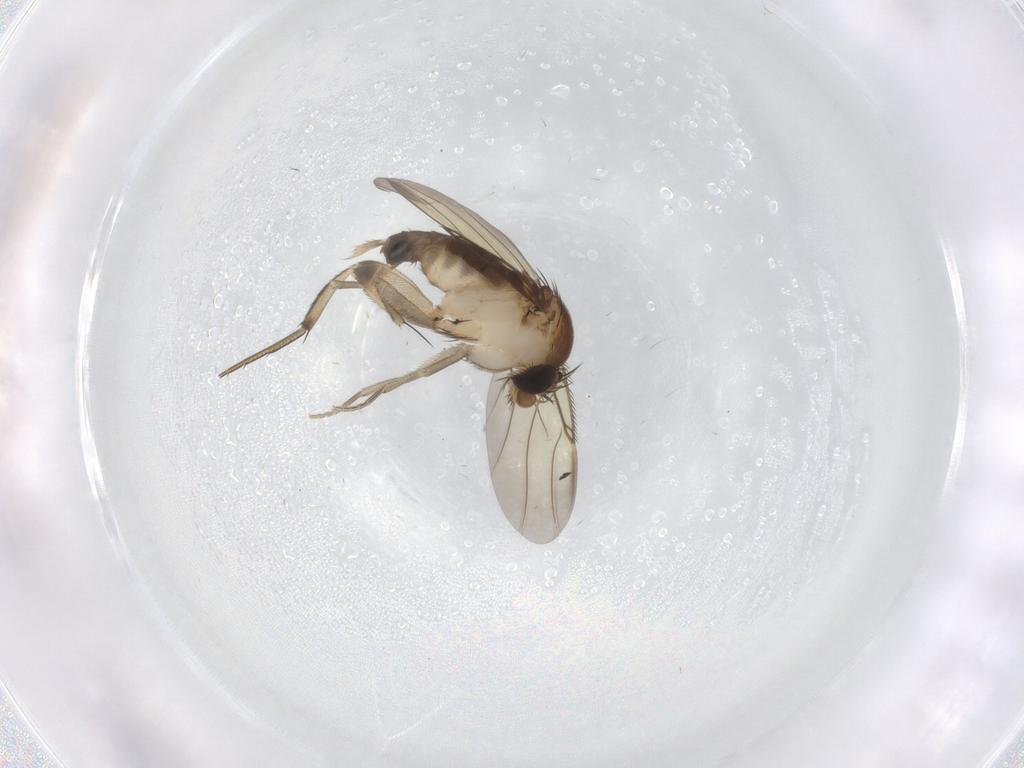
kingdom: Animalia
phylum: Arthropoda
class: Insecta
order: Diptera
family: Phoridae
